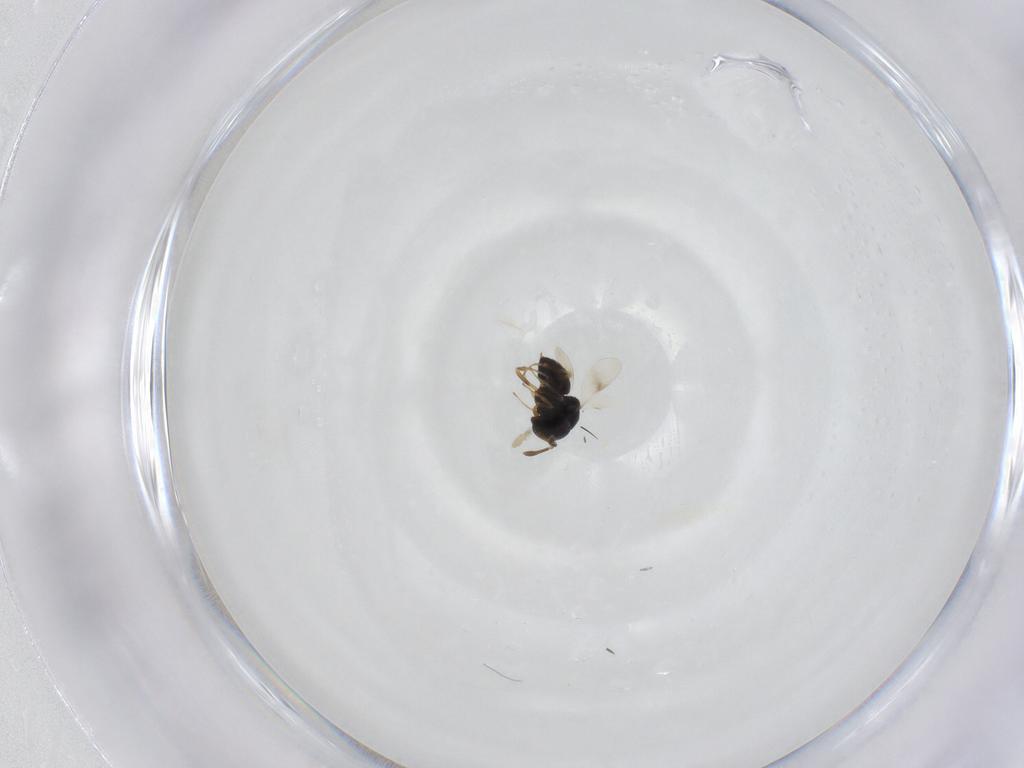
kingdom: Animalia
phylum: Arthropoda
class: Insecta
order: Hymenoptera
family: Scelionidae
